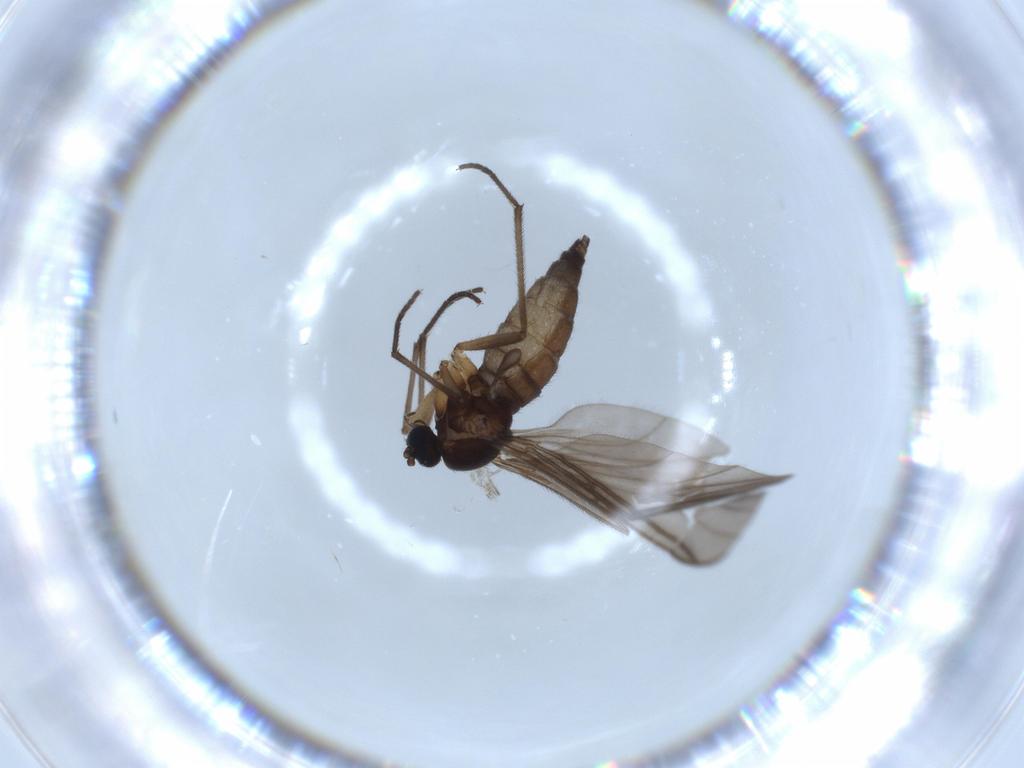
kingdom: Animalia
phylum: Arthropoda
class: Insecta
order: Diptera
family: Sciaridae
